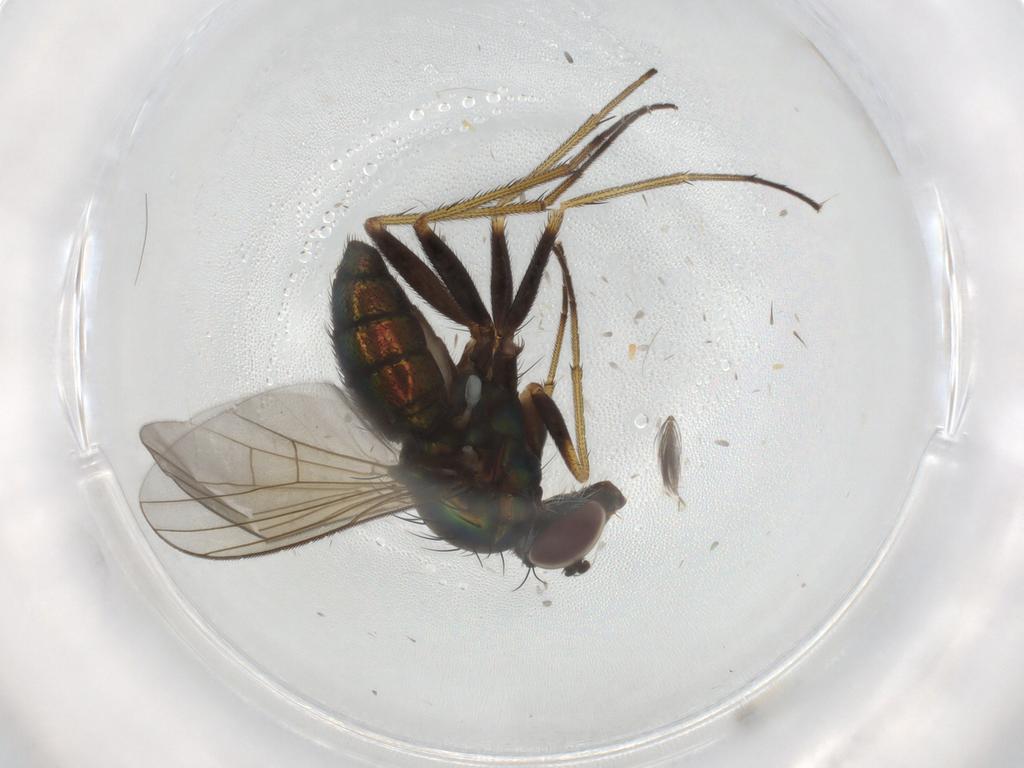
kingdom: Animalia
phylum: Arthropoda
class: Insecta
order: Diptera
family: Dolichopodidae
